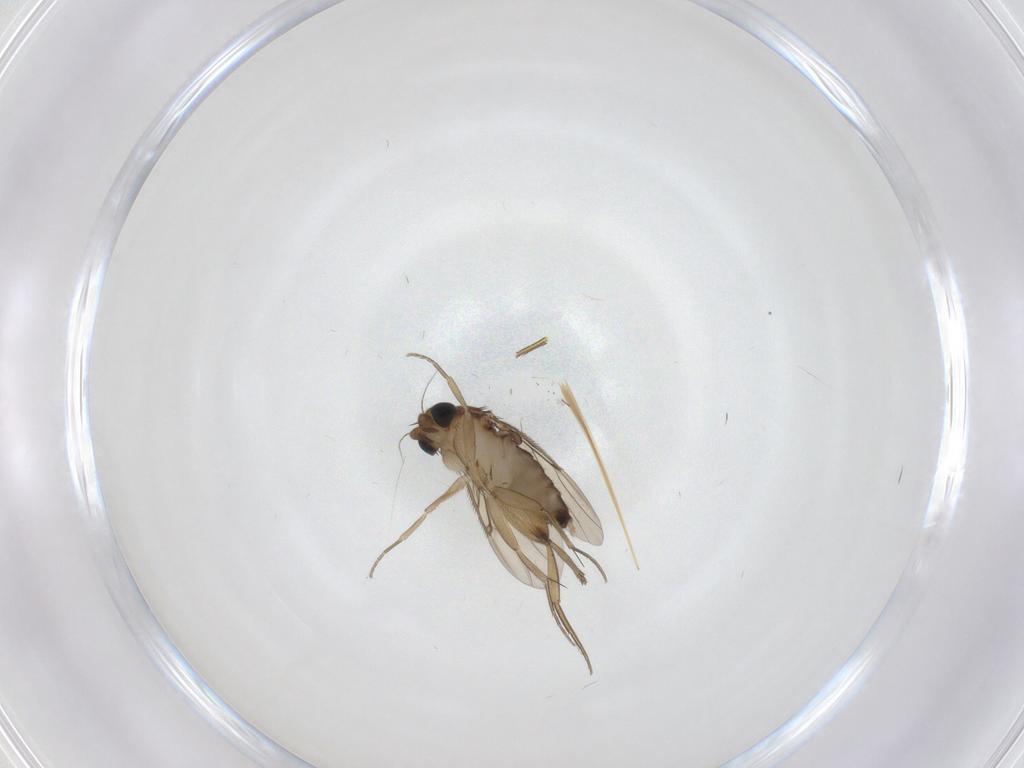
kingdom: Animalia
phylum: Arthropoda
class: Insecta
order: Diptera
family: Phoridae
